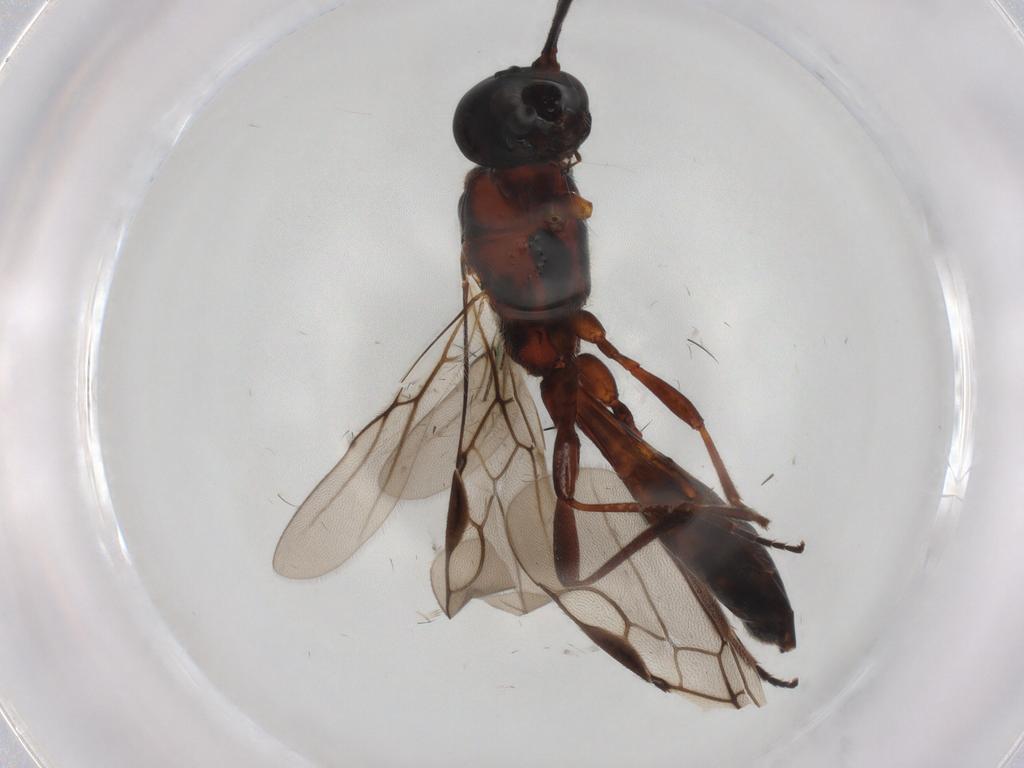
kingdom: Animalia
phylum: Arthropoda
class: Insecta
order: Hymenoptera
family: Braconidae
